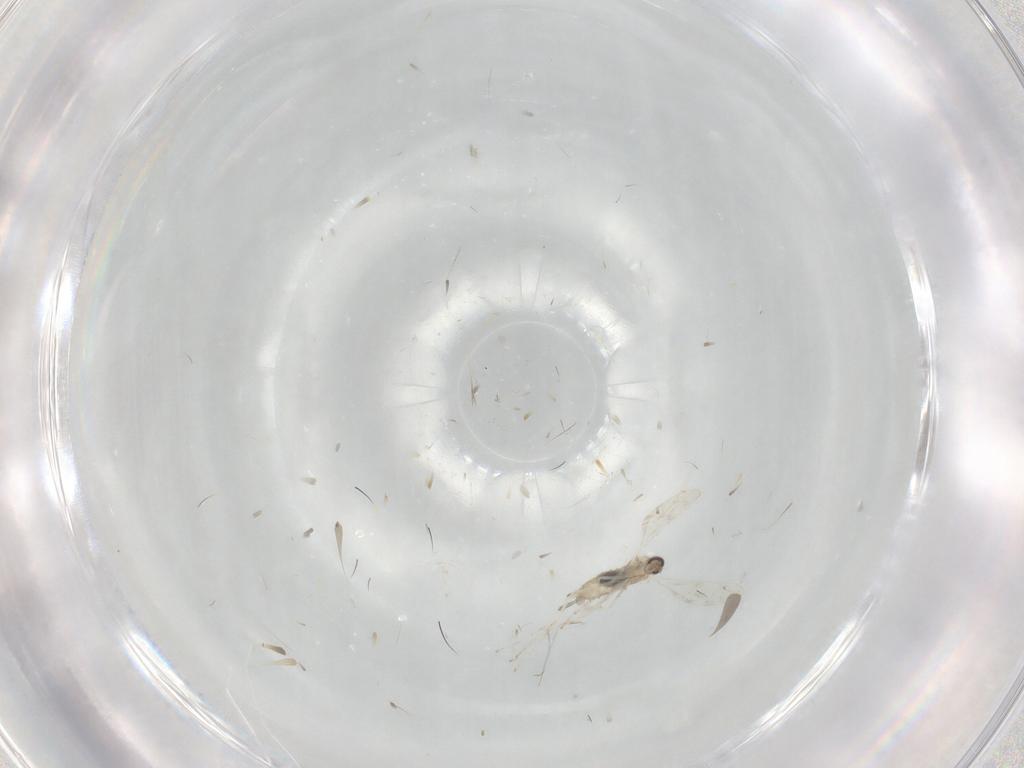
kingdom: Animalia
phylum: Arthropoda
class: Insecta
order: Diptera
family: Cecidomyiidae
